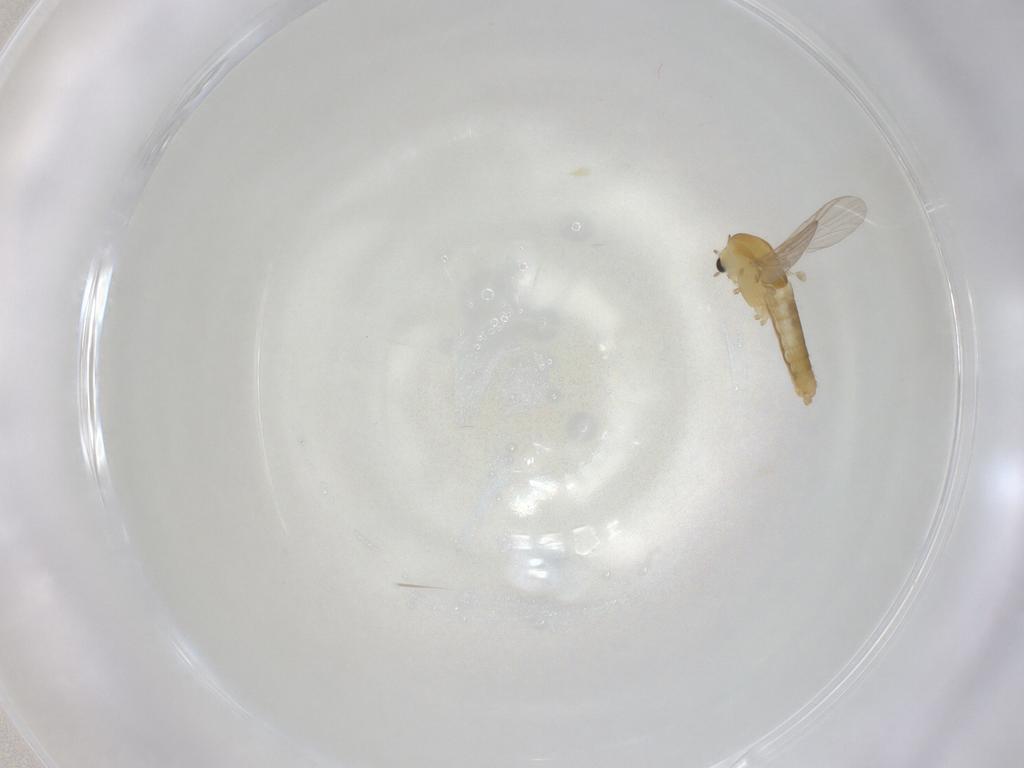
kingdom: Animalia
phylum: Arthropoda
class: Insecta
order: Diptera
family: Chironomidae
